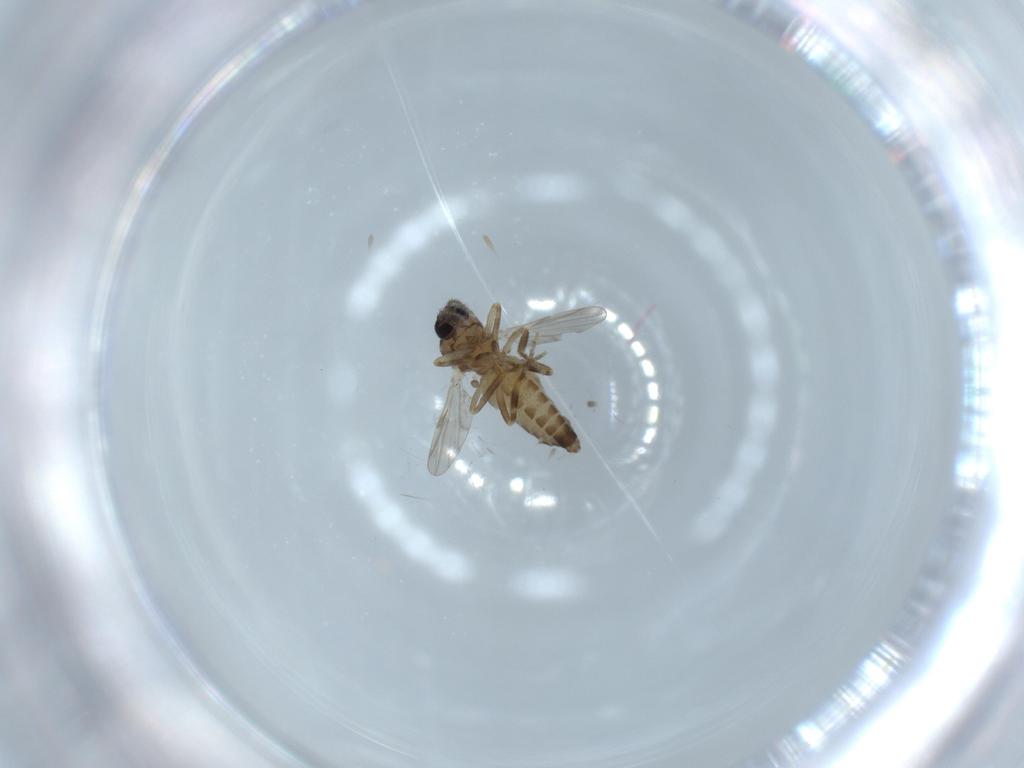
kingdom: Animalia
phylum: Arthropoda
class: Insecta
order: Diptera
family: Ceratopogonidae
